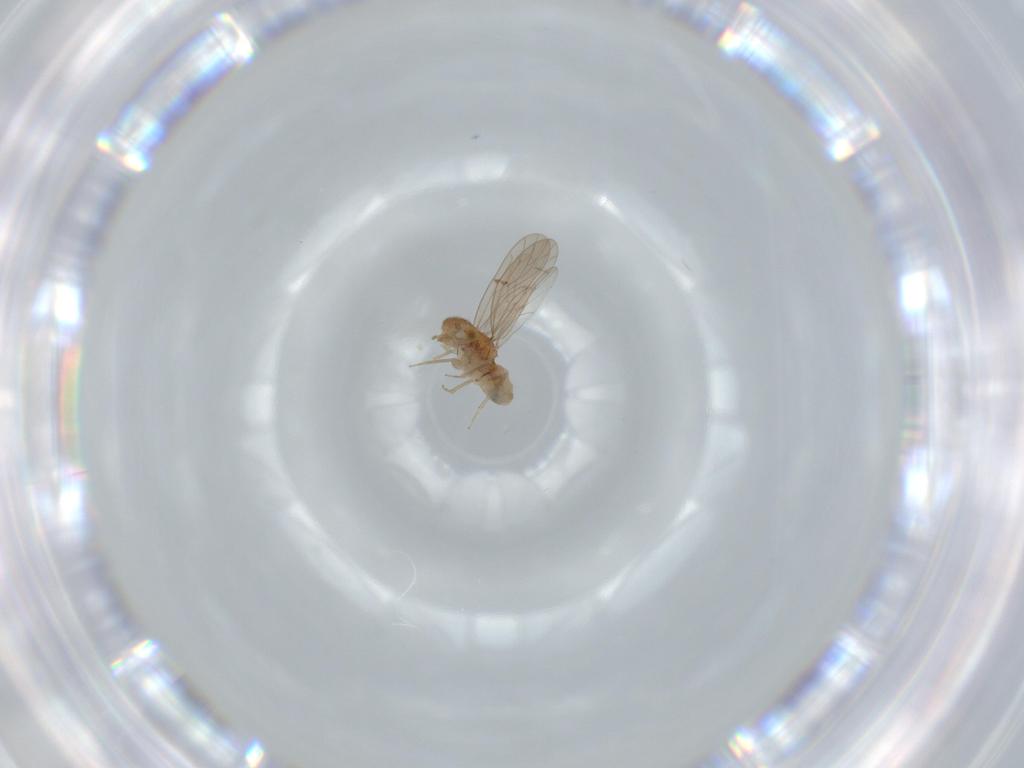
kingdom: Animalia
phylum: Arthropoda
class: Insecta
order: Psocodea
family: Ectopsocidae
